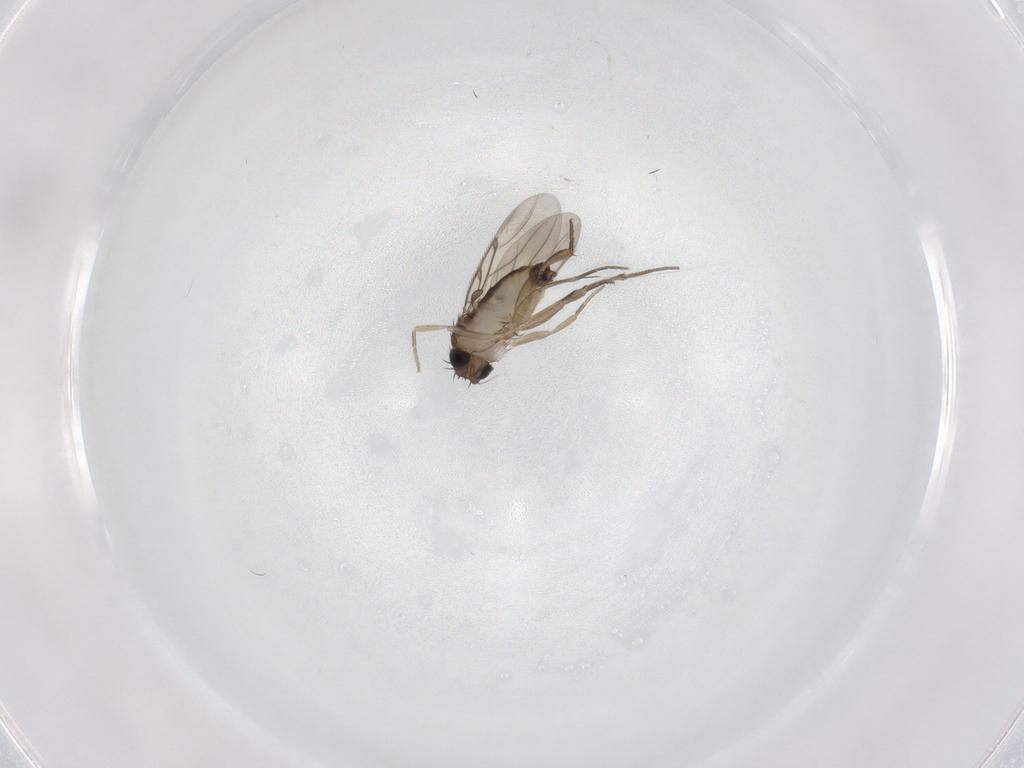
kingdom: Animalia
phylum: Arthropoda
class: Insecta
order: Diptera
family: Phoridae
